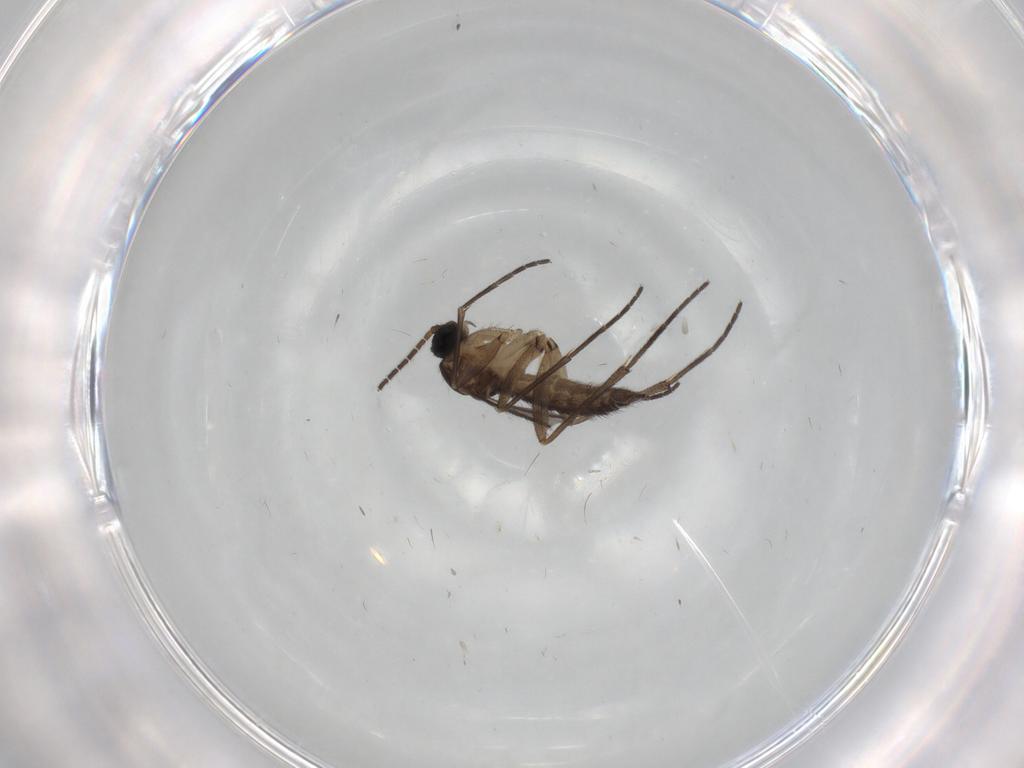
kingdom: Animalia
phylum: Arthropoda
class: Insecta
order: Diptera
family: Sciaridae
